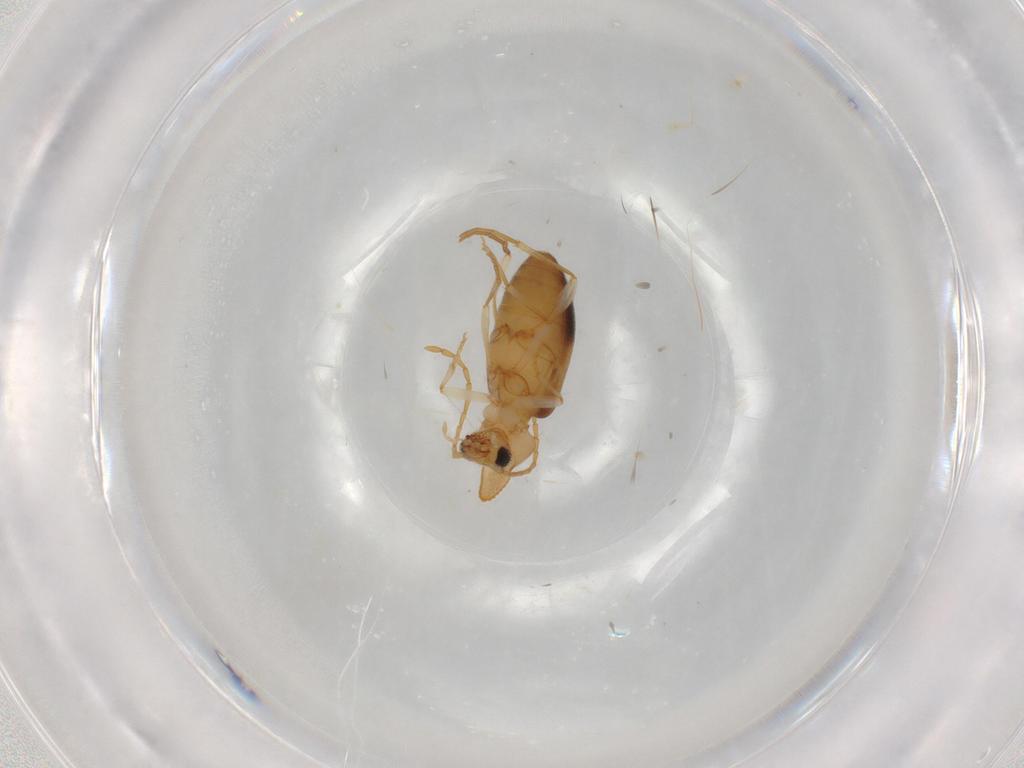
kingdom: Animalia
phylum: Arthropoda
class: Insecta
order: Coleoptera
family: Anthicidae
